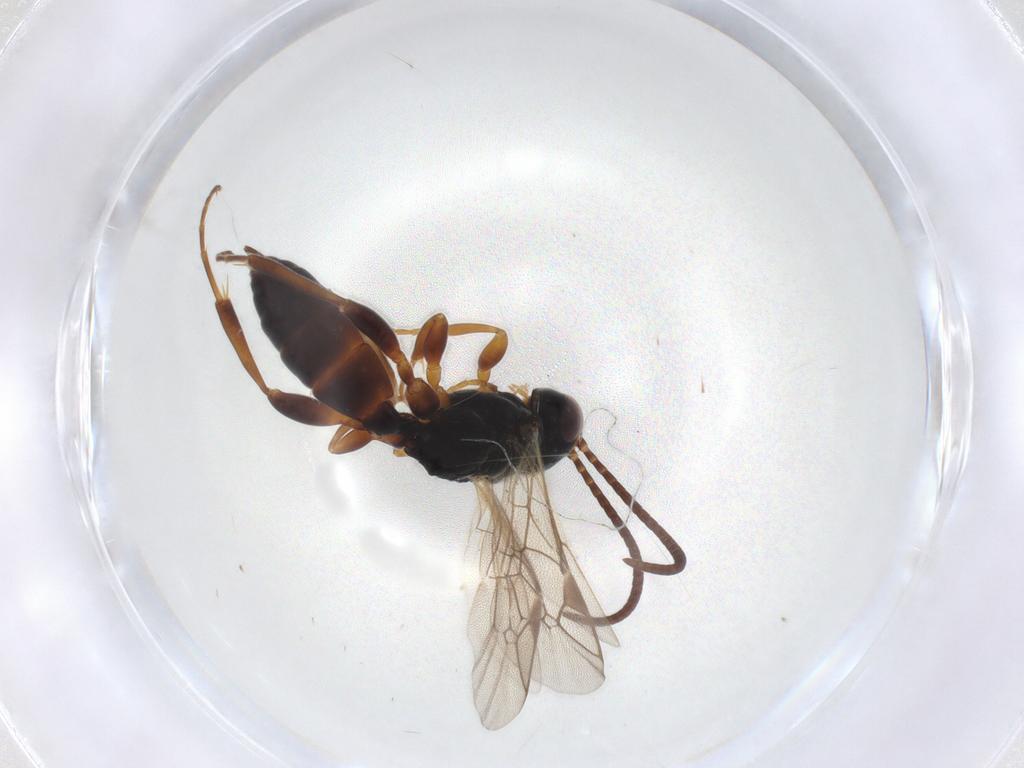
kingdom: Animalia
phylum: Arthropoda
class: Insecta
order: Hymenoptera
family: Ichneumonidae
